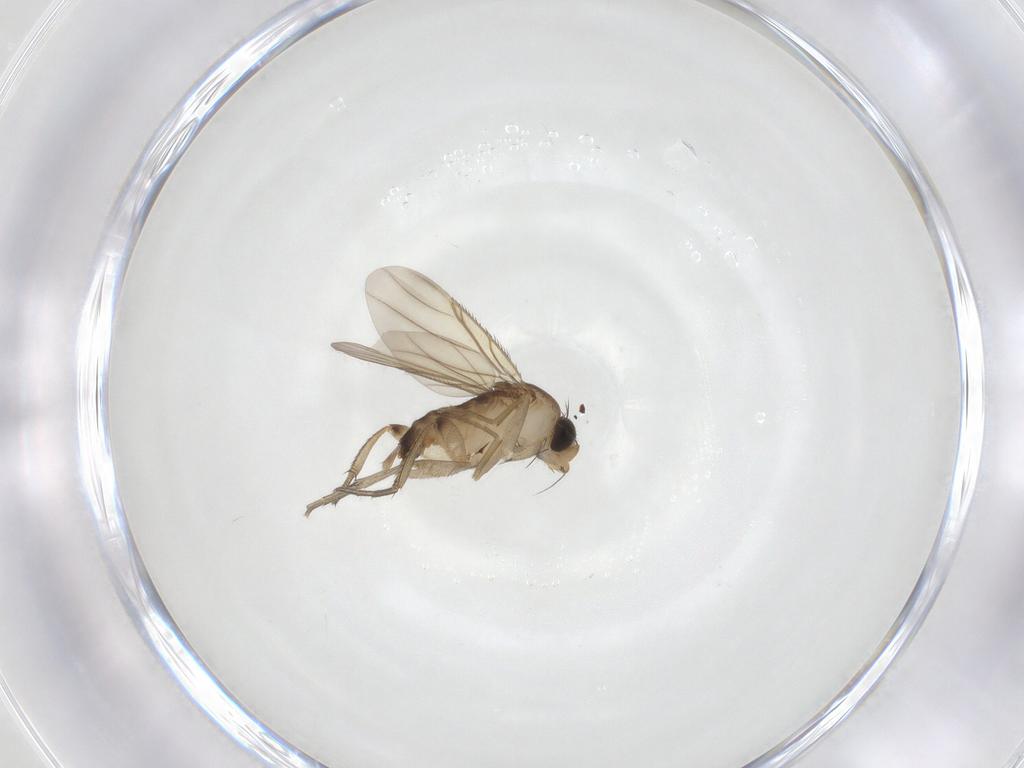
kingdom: Animalia
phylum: Arthropoda
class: Insecta
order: Diptera
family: Phoridae
